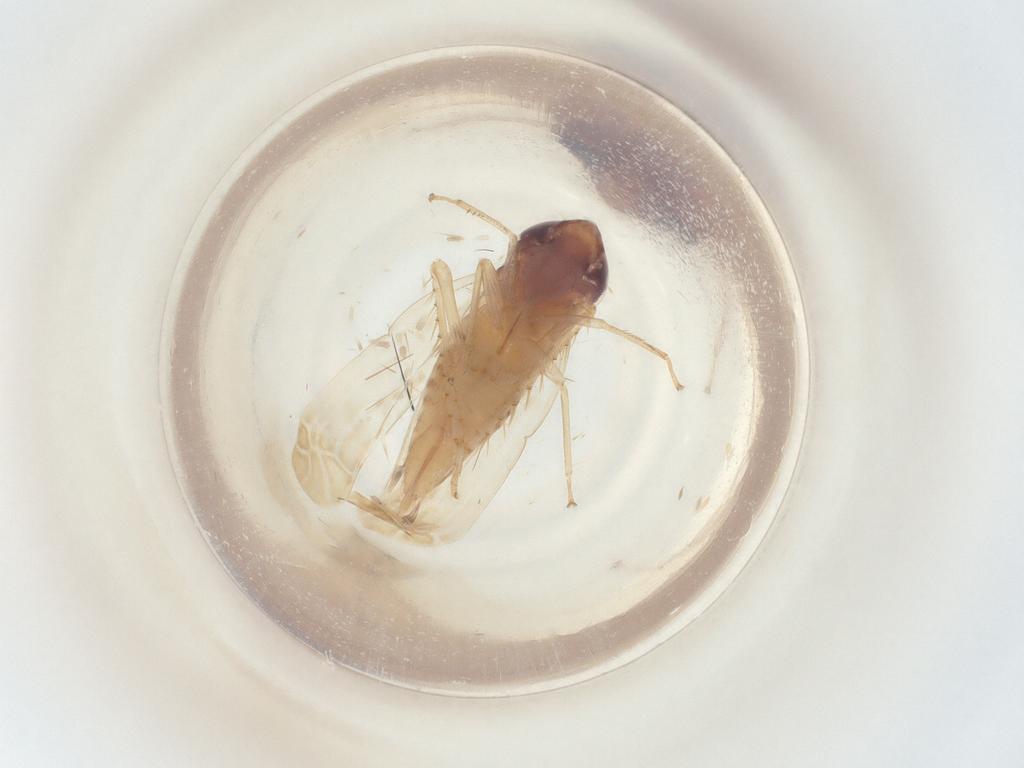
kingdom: Animalia
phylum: Arthropoda
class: Insecta
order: Hemiptera
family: Cicadellidae
